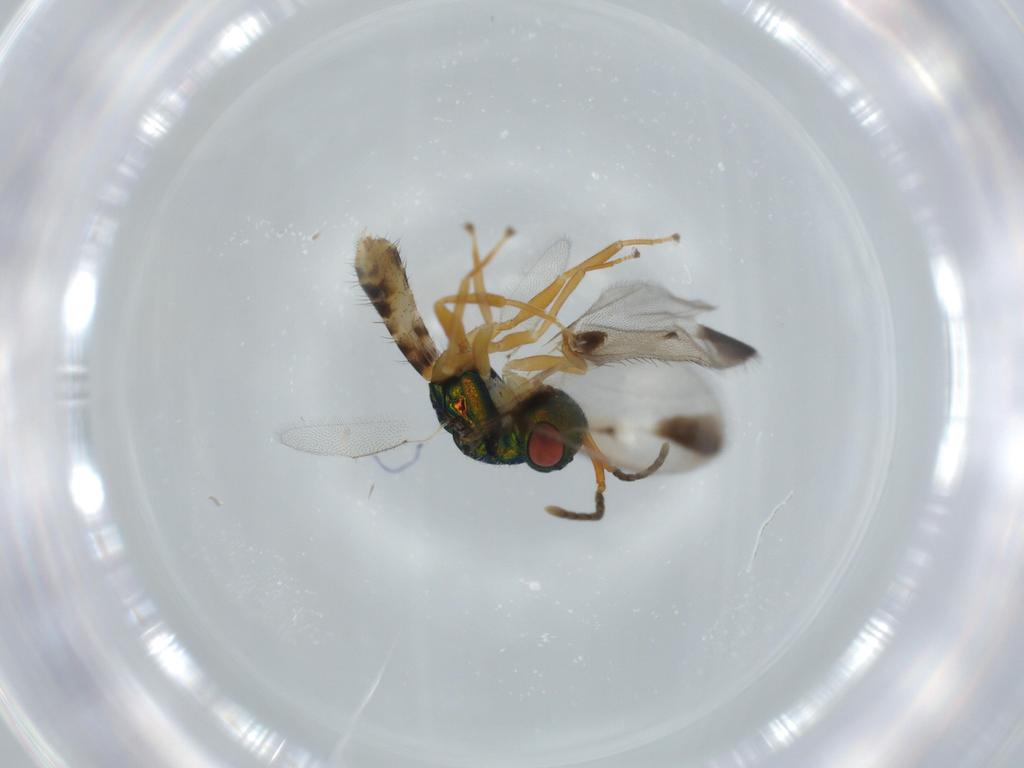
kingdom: Animalia
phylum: Arthropoda
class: Insecta
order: Hymenoptera
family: Pteromalidae
